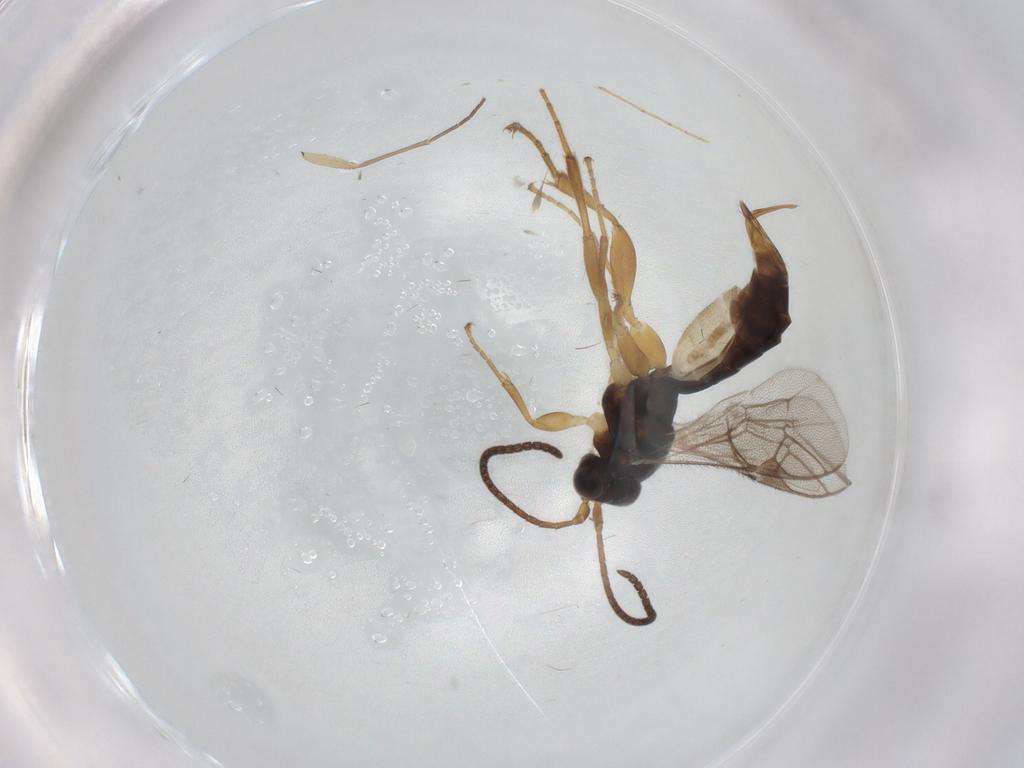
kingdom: Animalia
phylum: Arthropoda
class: Insecta
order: Hymenoptera
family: Ichneumonidae
